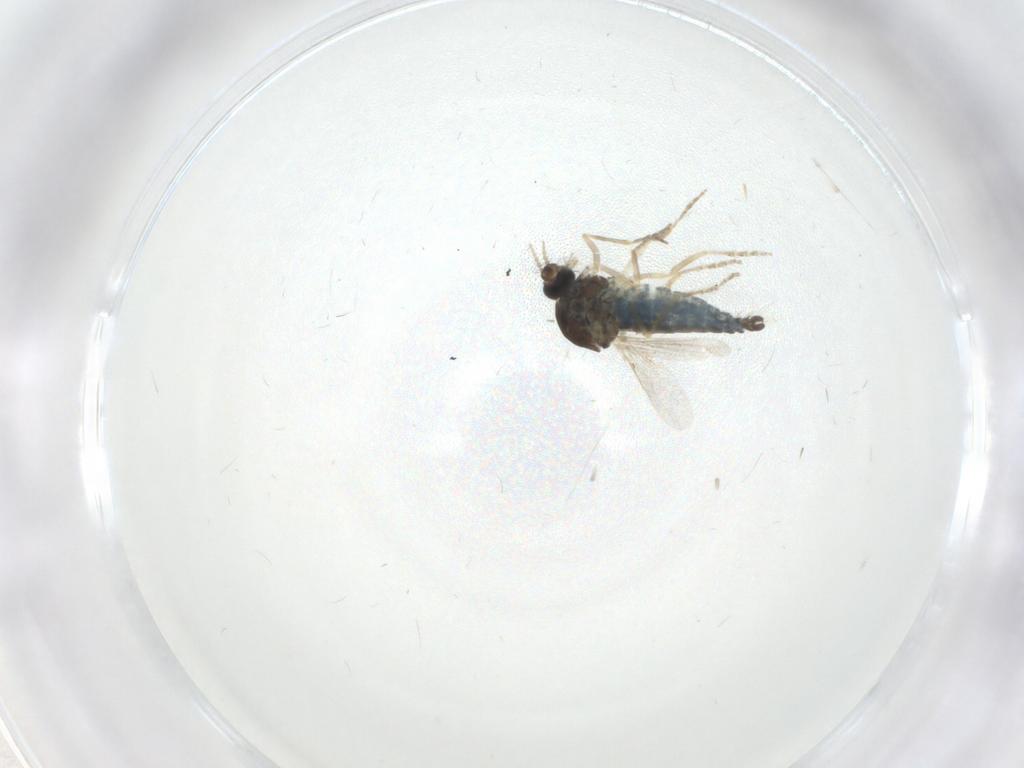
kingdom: Animalia
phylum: Arthropoda
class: Insecta
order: Diptera
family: Ceratopogonidae
